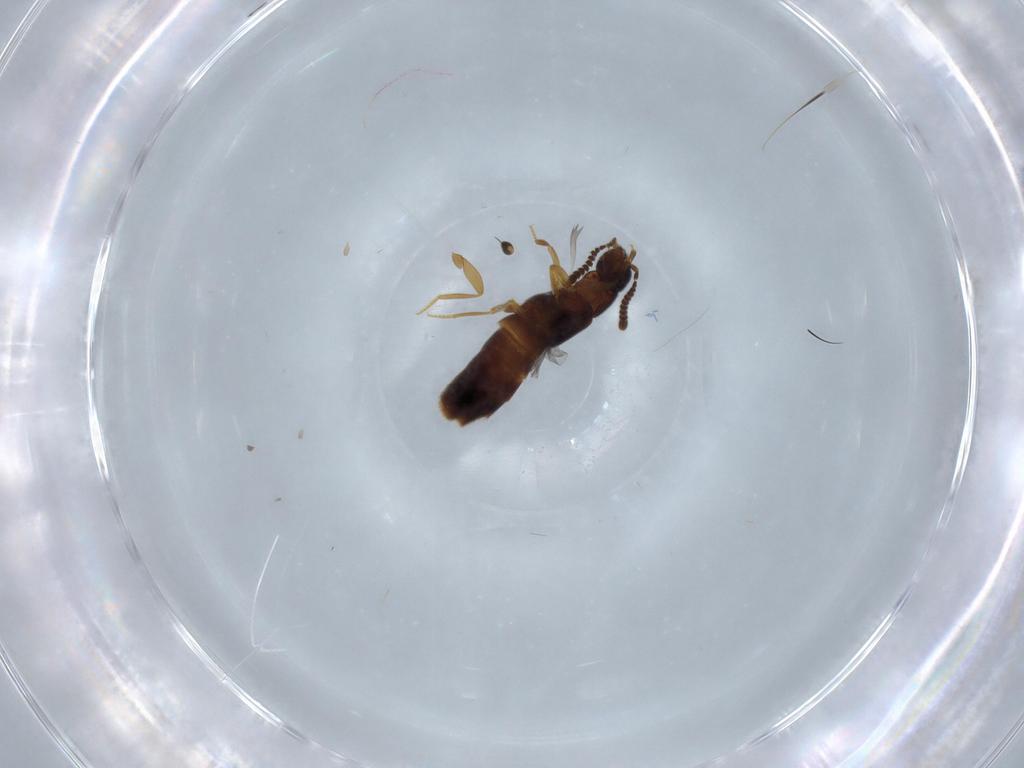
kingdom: Animalia
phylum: Arthropoda
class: Insecta
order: Coleoptera
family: Staphylinidae
